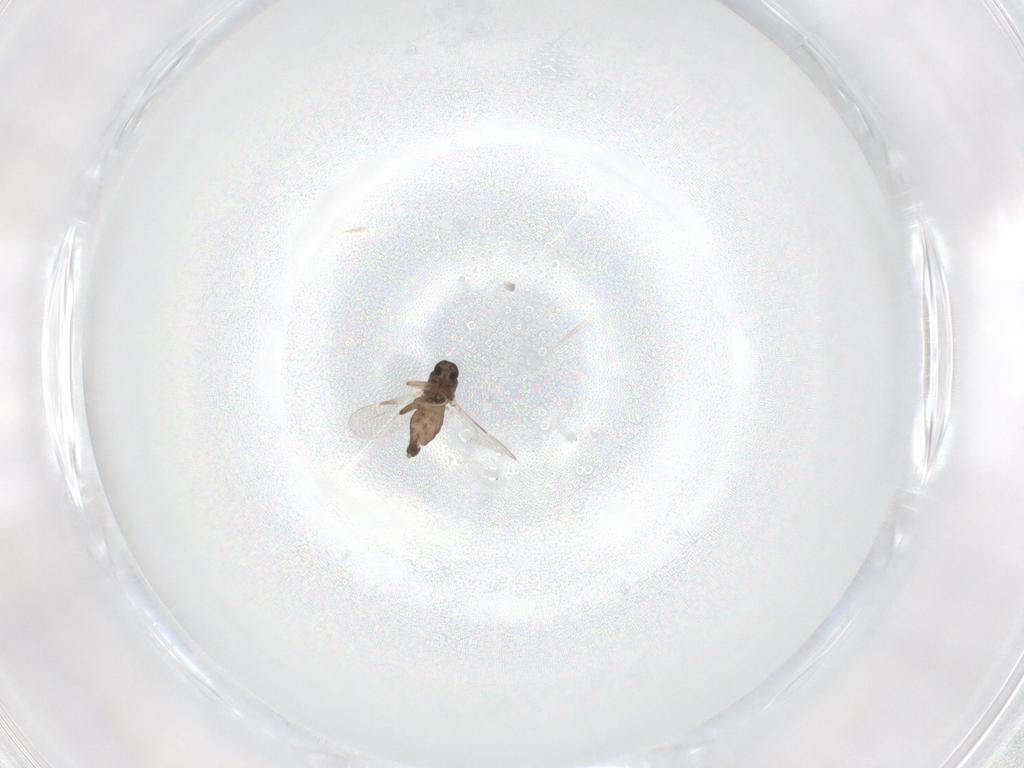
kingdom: Animalia
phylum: Arthropoda
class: Insecta
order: Diptera
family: Ceratopogonidae
